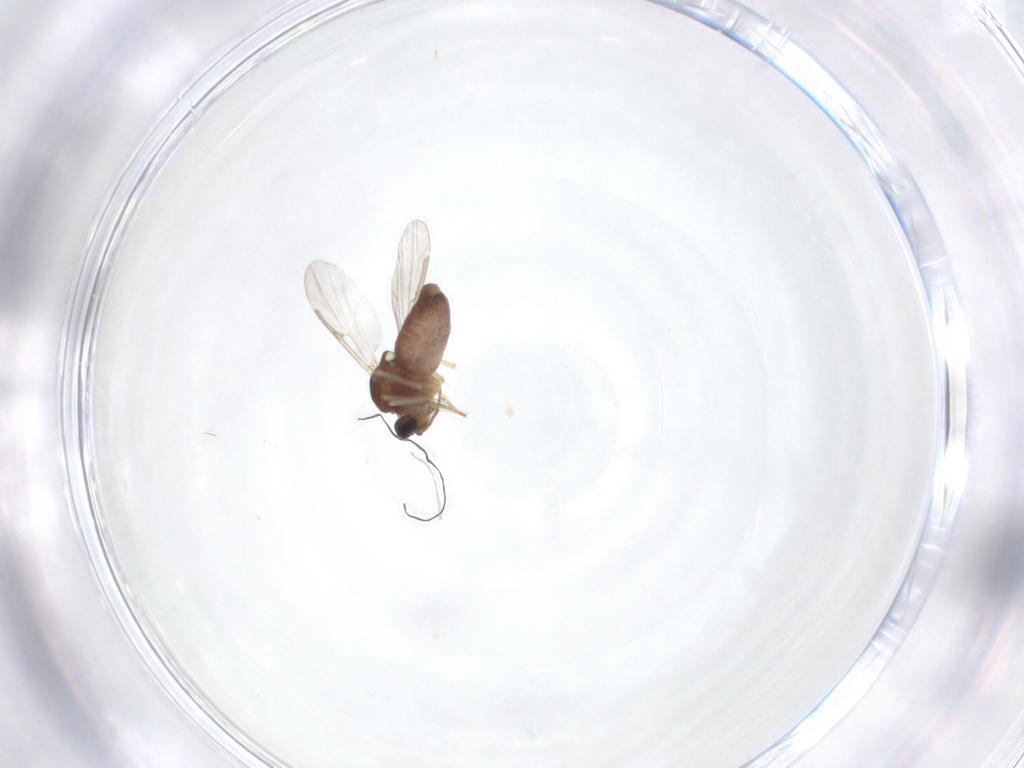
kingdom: Animalia
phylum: Arthropoda
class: Insecta
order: Diptera
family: Ceratopogonidae
